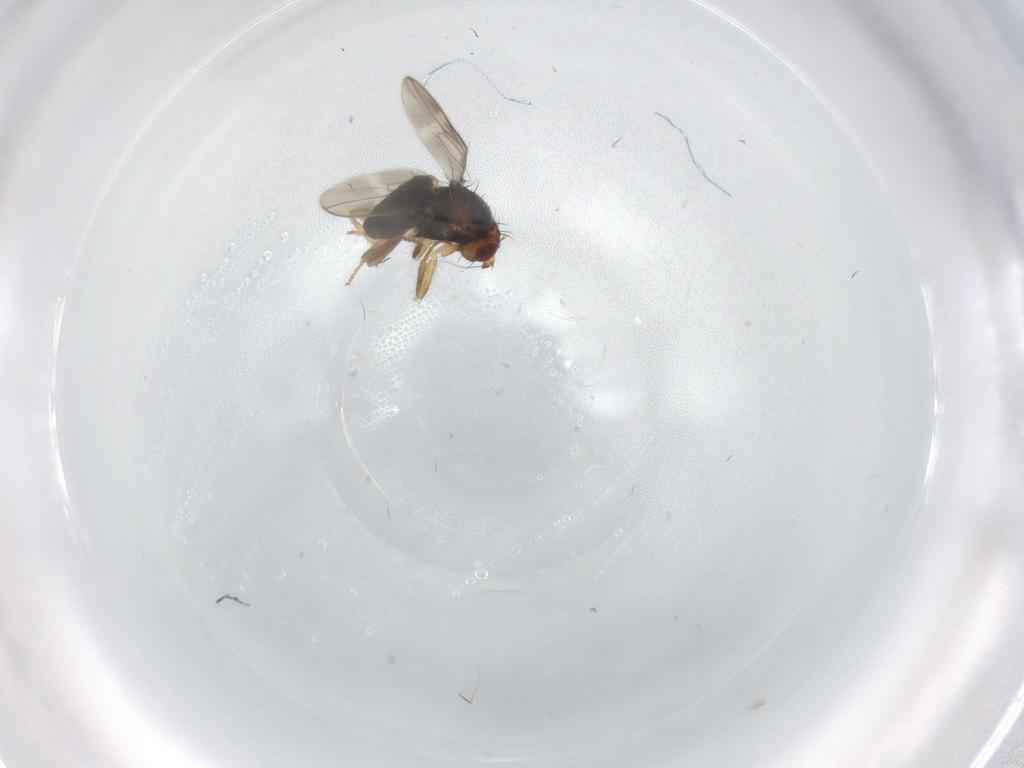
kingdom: Animalia
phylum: Arthropoda
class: Insecta
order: Diptera
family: Sphaeroceridae
